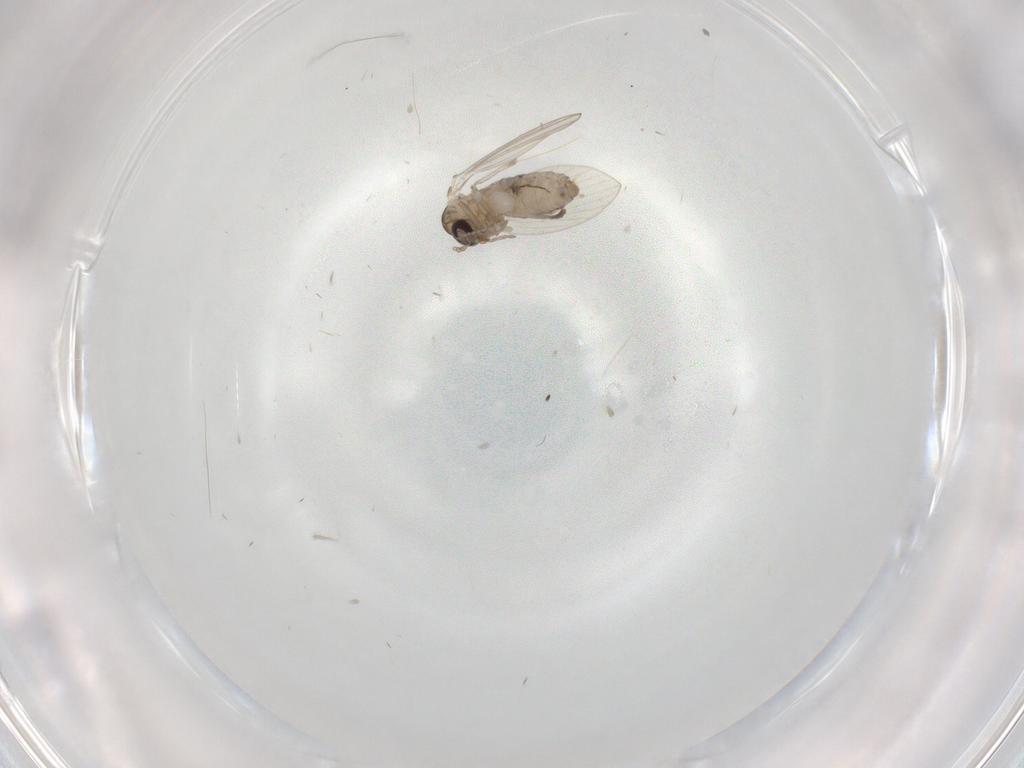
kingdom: Animalia
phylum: Arthropoda
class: Insecta
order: Diptera
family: Psychodidae
